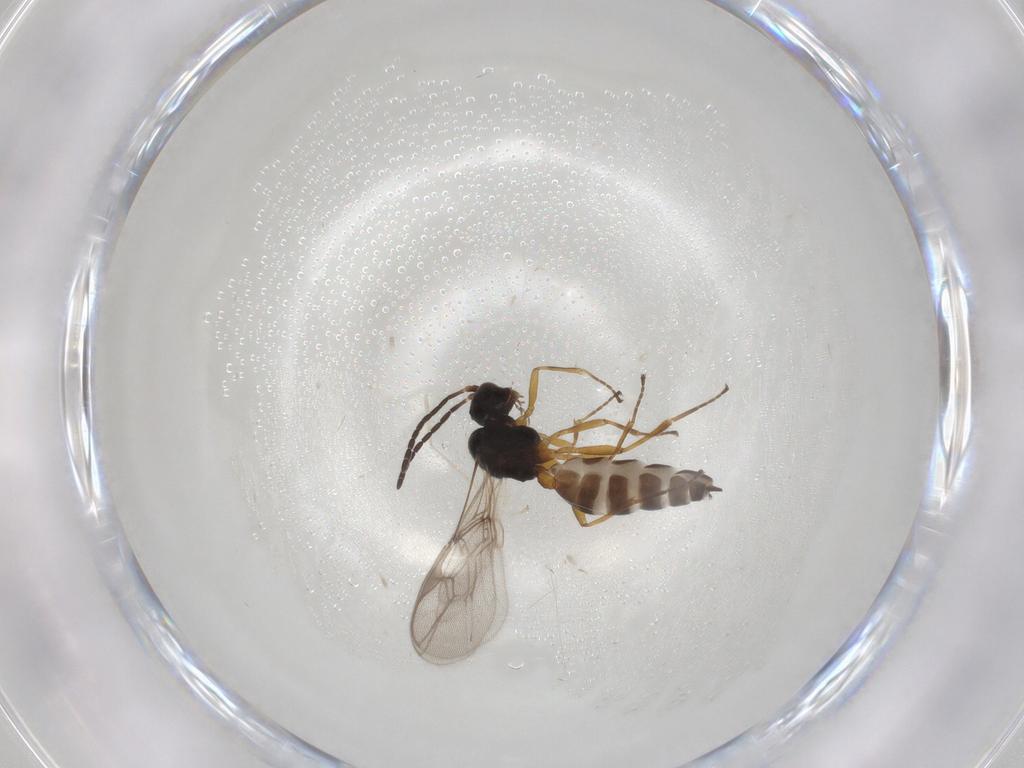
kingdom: Animalia
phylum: Arthropoda
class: Insecta
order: Hymenoptera
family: Braconidae
